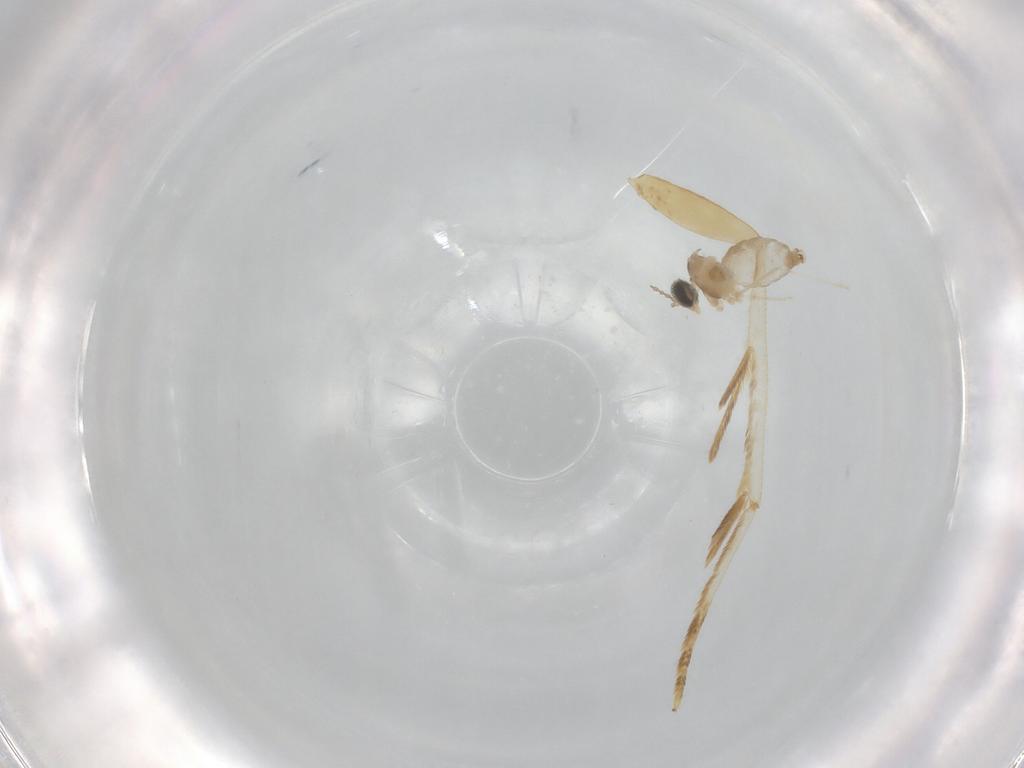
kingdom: Animalia
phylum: Arthropoda
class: Insecta
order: Diptera
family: Cecidomyiidae
